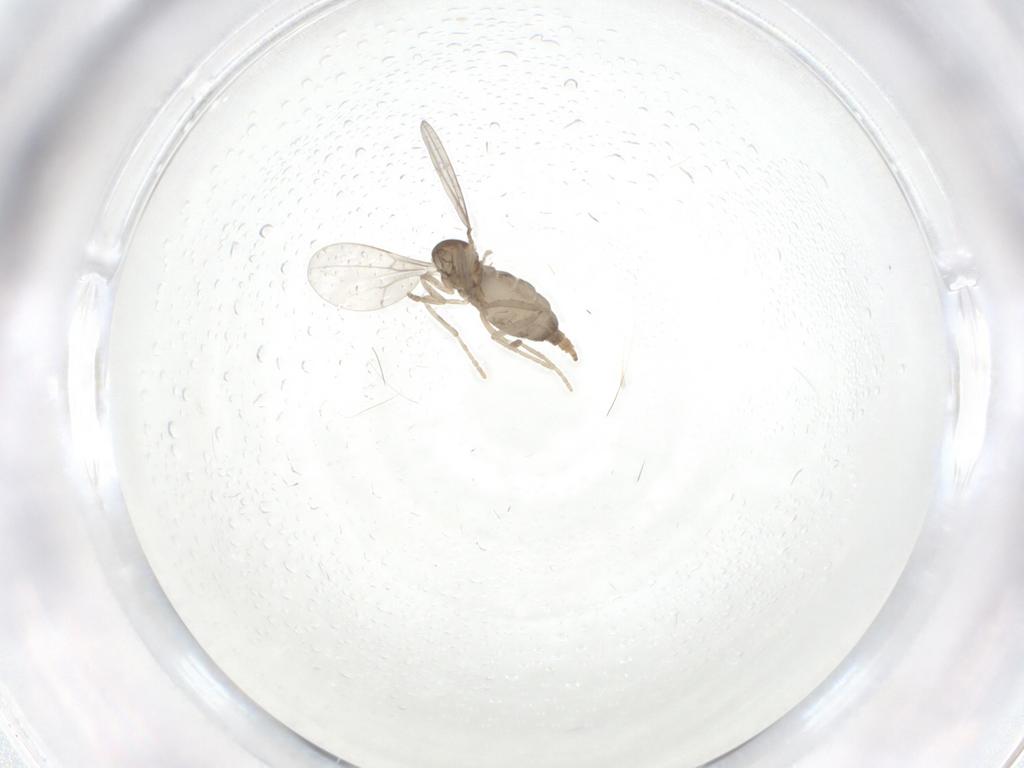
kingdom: Animalia
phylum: Arthropoda
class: Insecta
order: Diptera
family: Cecidomyiidae
